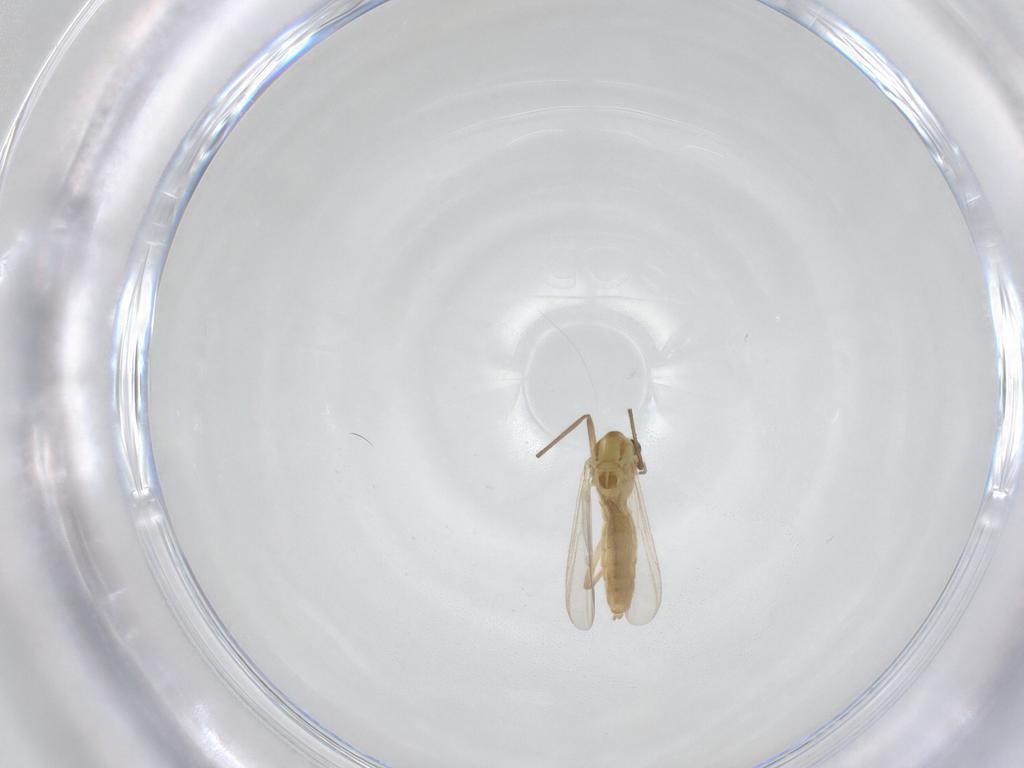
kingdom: Animalia
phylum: Arthropoda
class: Insecta
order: Diptera
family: Chironomidae
